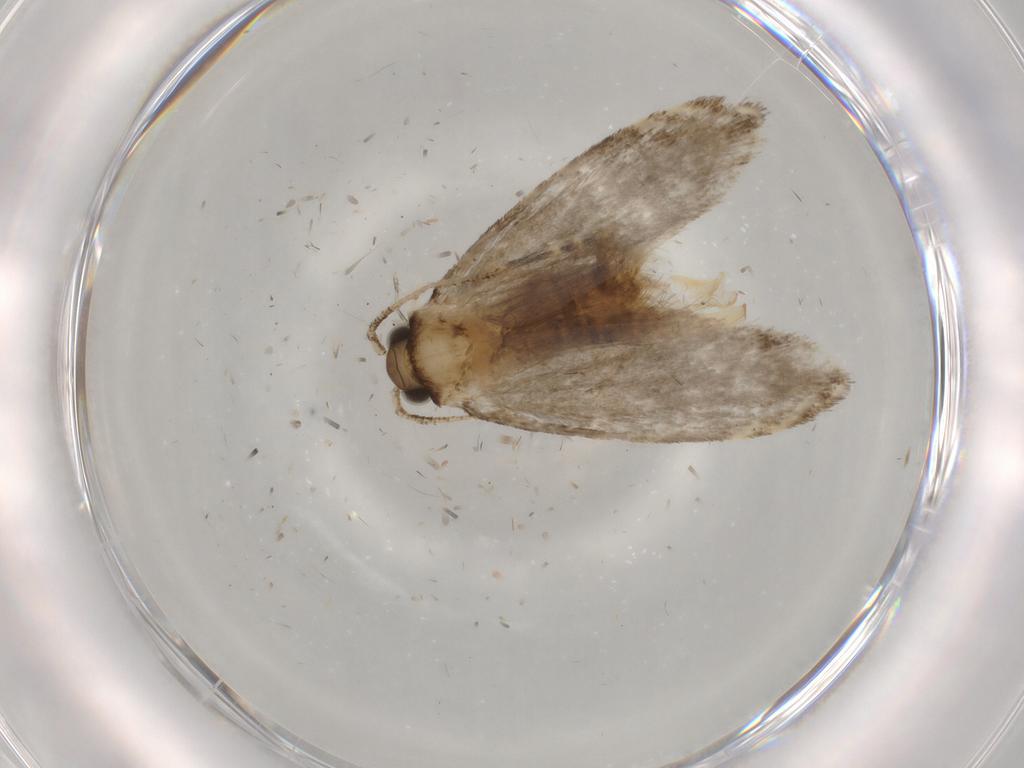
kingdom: Animalia
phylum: Arthropoda
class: Insecta
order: Lepidoptera
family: Tineidae
